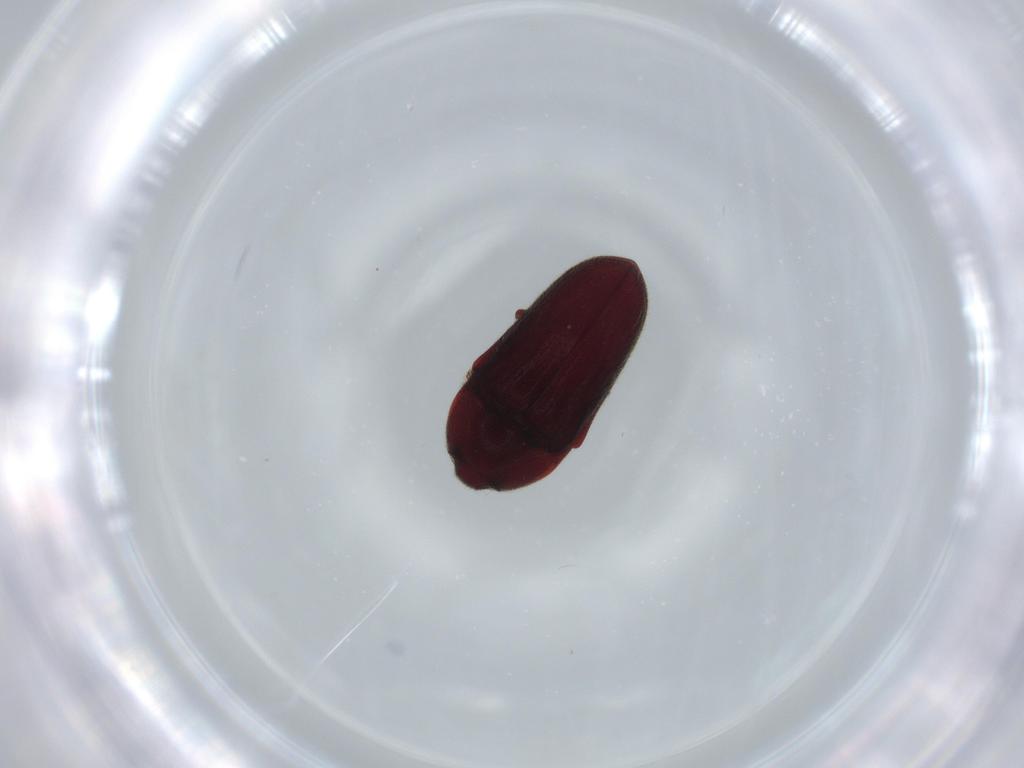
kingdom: Animalia
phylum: Arthropoda
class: Insecta
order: Coleoptera
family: Throscidae
